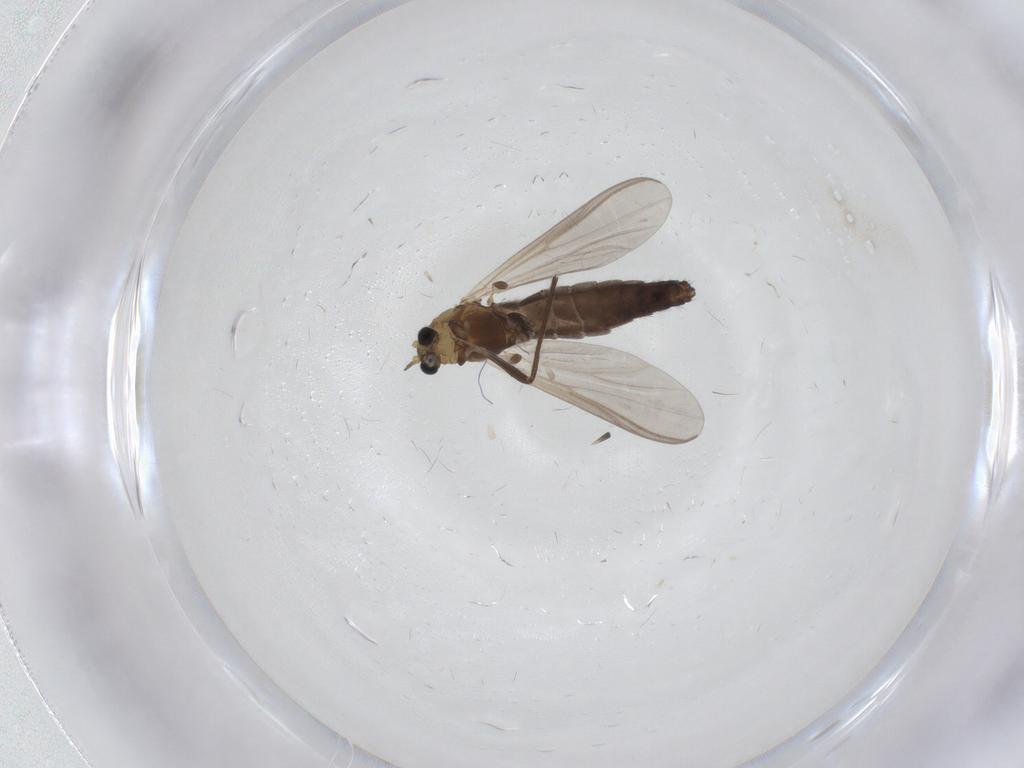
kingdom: Animalia
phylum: Arthropoda
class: Insecta
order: Diptera
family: Chironomidae
